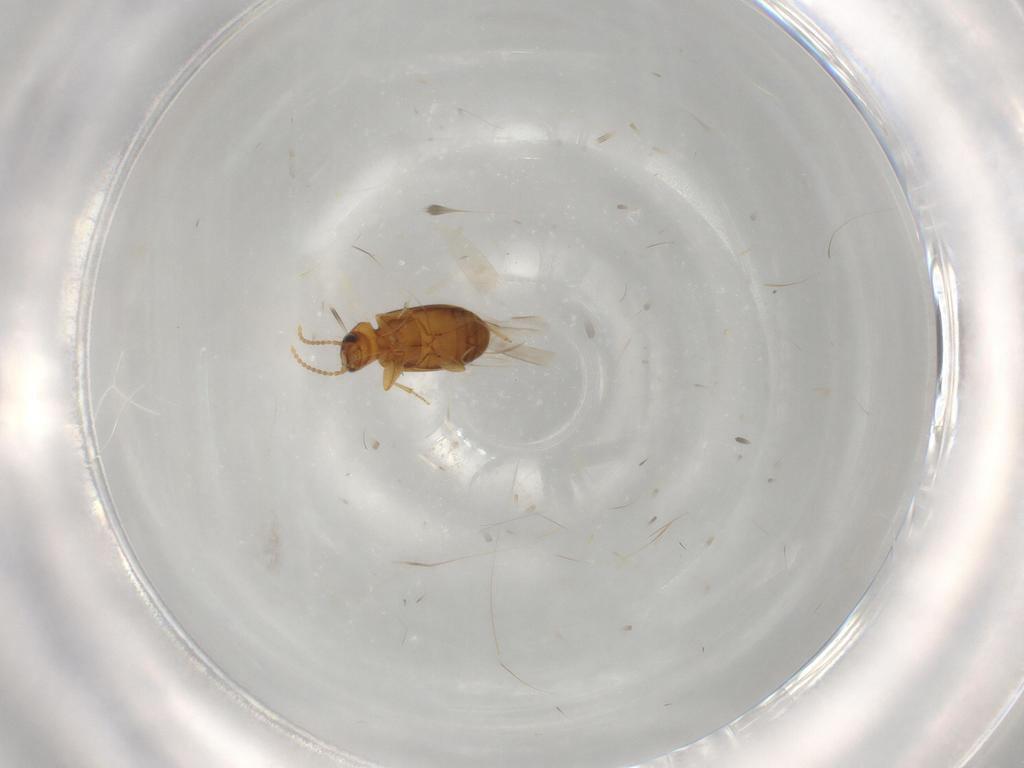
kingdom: Animalia
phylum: Arthropoda
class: Insecta
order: Coleoptera
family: Carabidae
